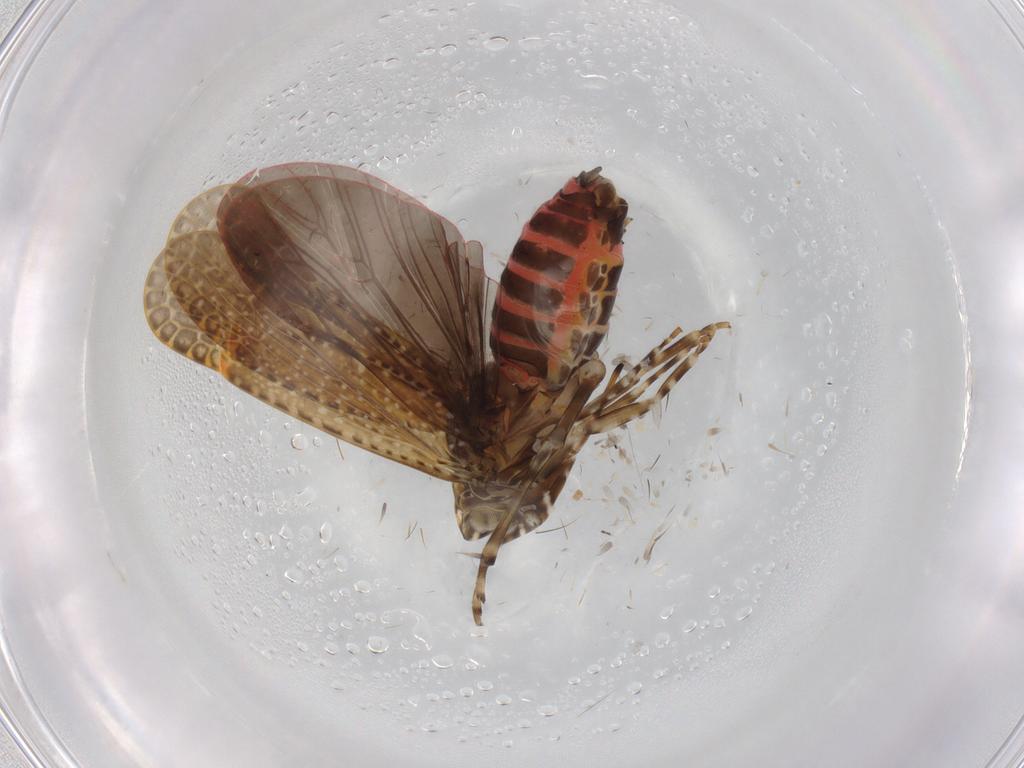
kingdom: Animalia
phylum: Arthropoda
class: Insecta
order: Hemiptera
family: Achilidae
